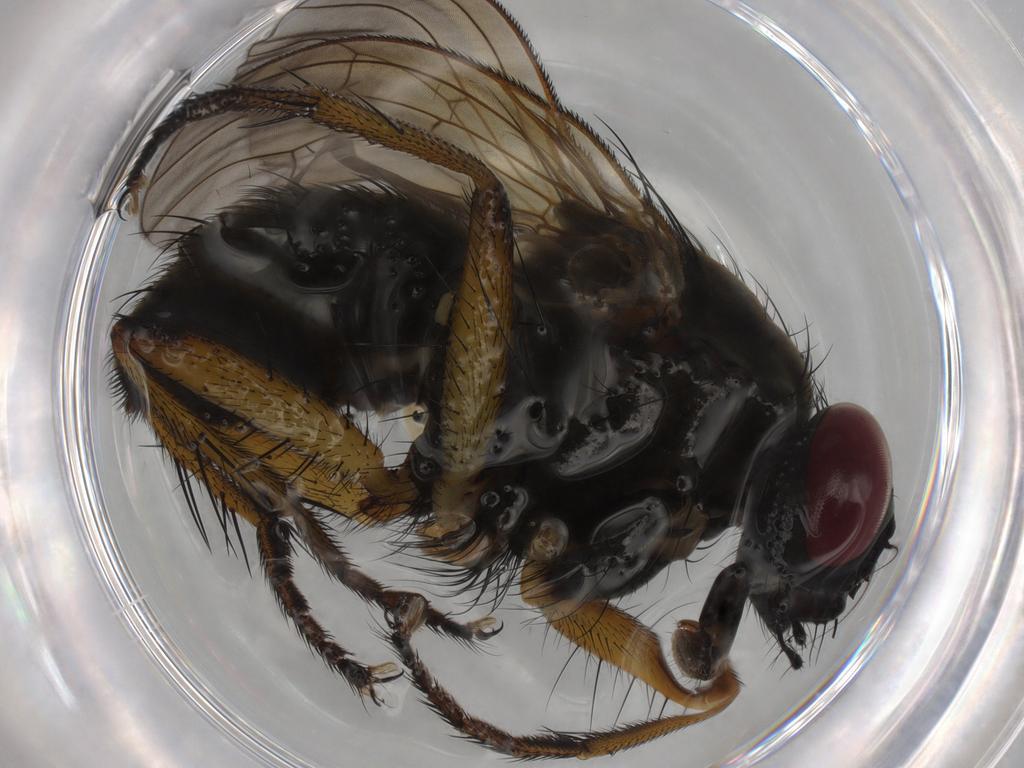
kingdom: Animalia
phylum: Arthropoda
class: Insecta
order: Diptera
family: Muscidae
